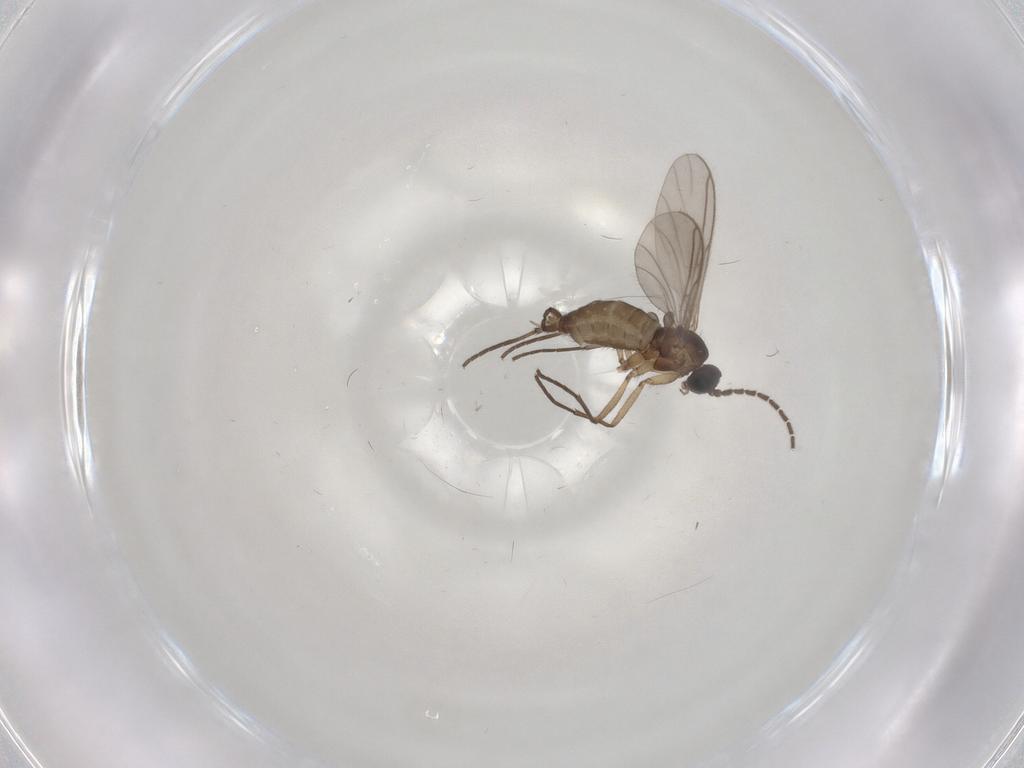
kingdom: Animalia
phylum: Arthropoda
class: Insecta
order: Diptera
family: Sciaridae
